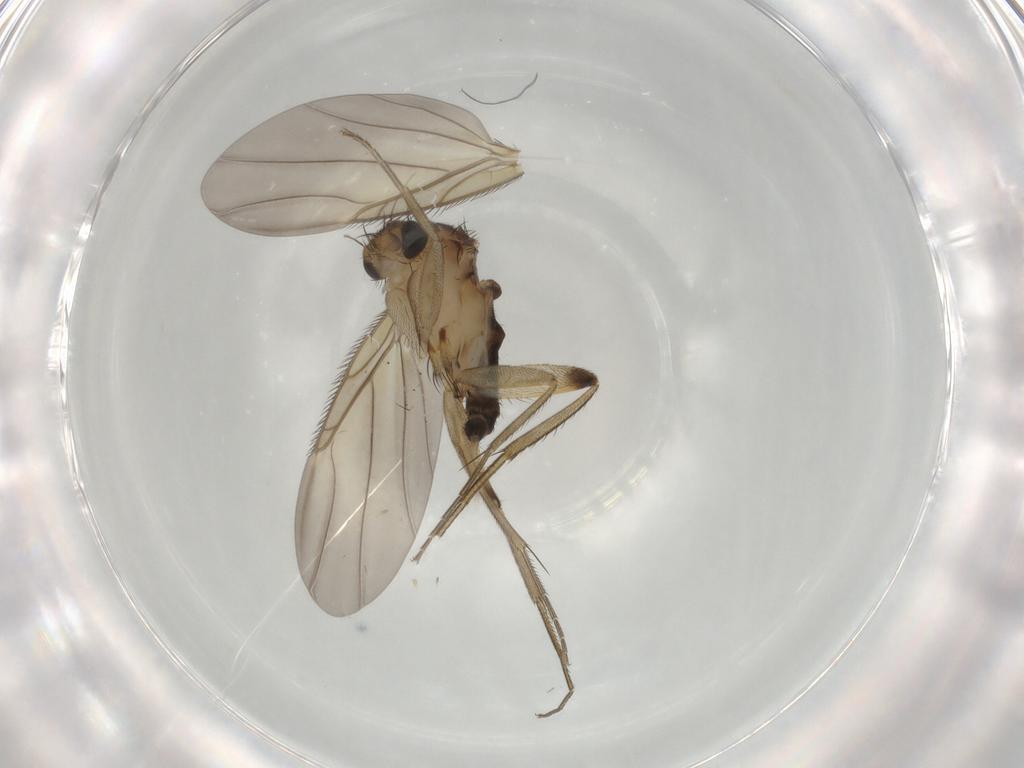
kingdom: Animalia
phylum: Arthropoda
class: Insecta
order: Diptera
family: Phoridae
